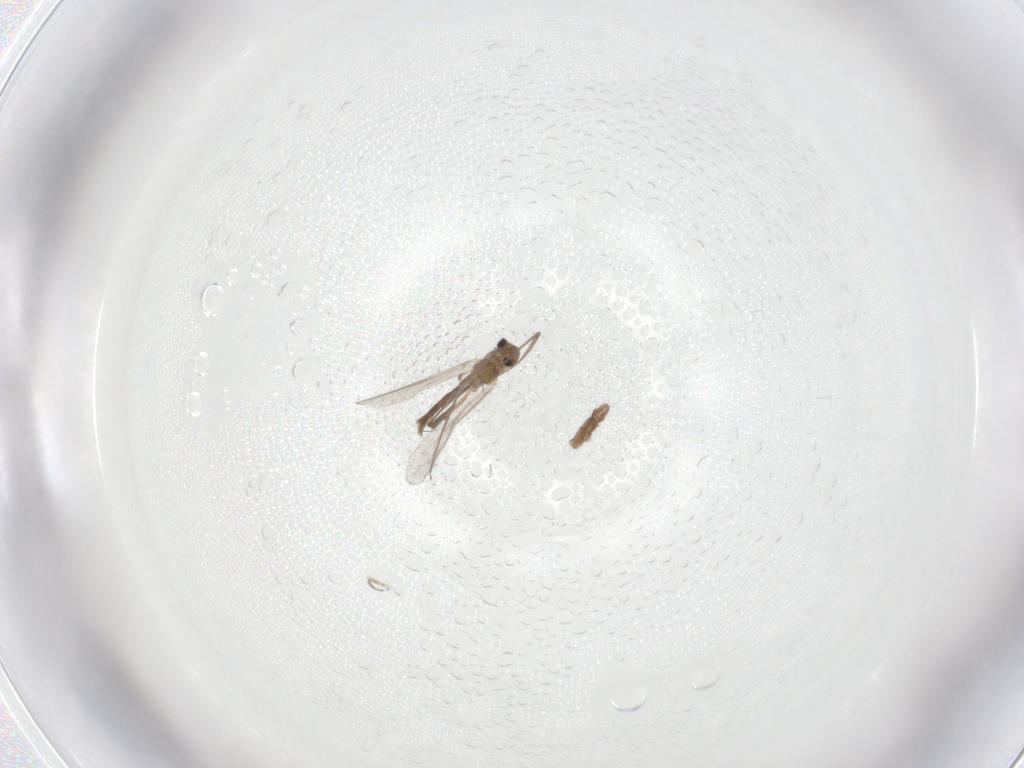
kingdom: Animalia
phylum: Arthropoda
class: Insecta
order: Diptera
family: Chironomidae
